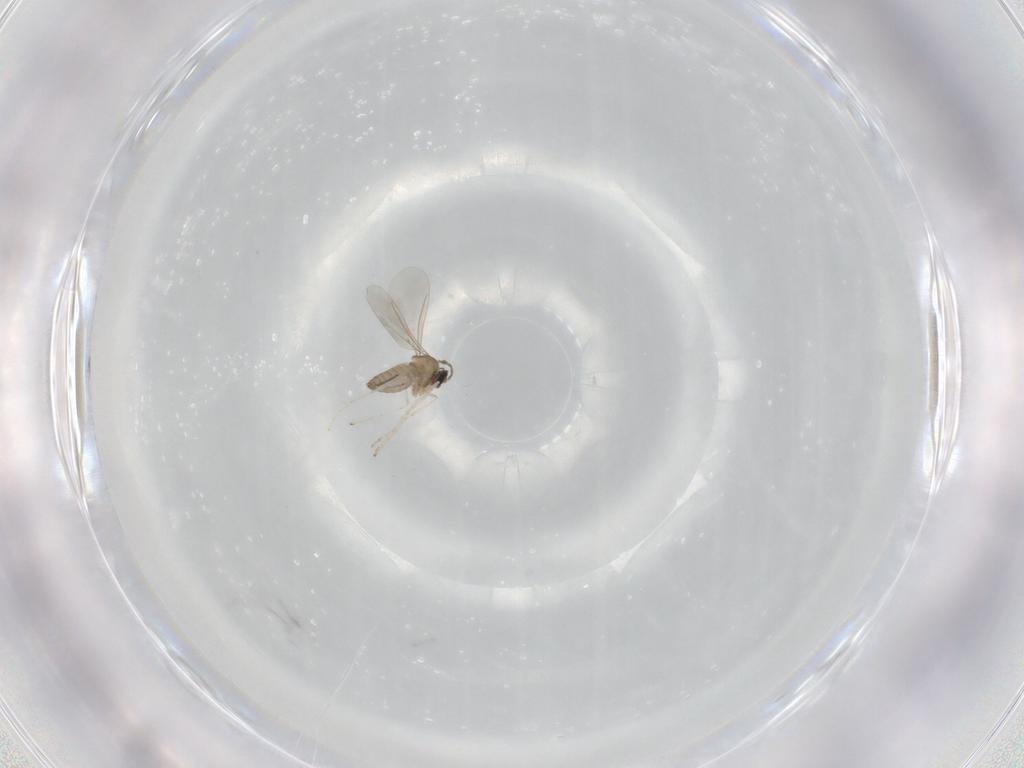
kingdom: Animalia
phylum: Arthropoda
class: Insecta
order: Diptera
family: Cecidomyiidae
